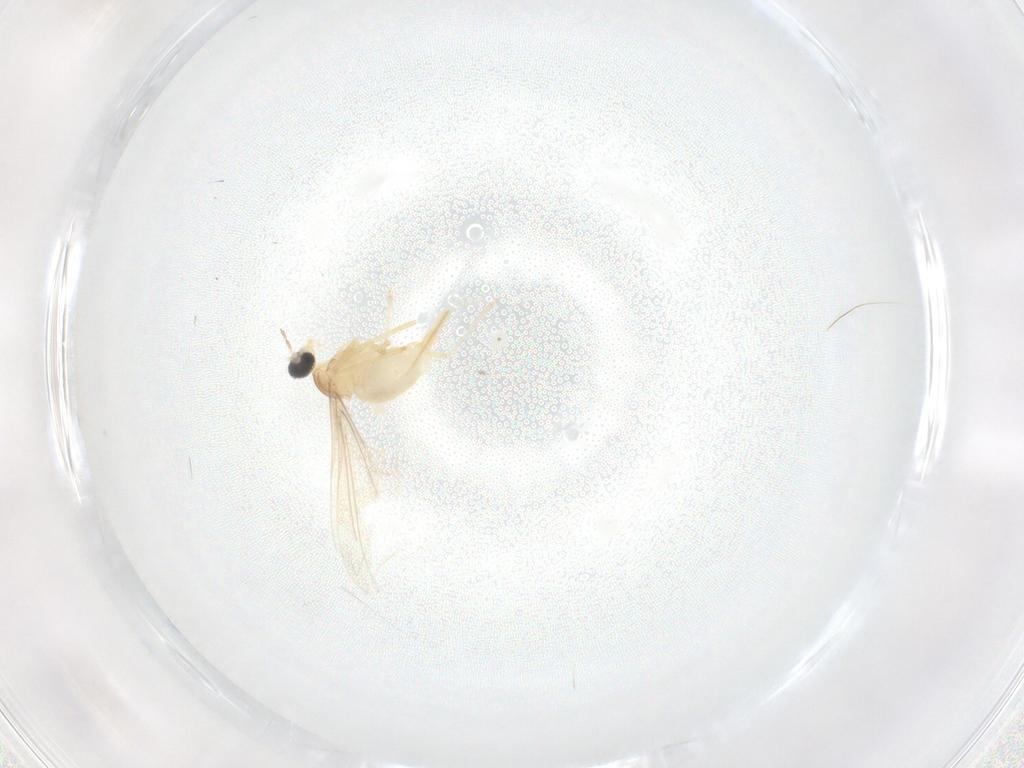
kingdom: Animalia
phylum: Arthropoda
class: Insecta
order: Diptera
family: Cecidomyiidae
